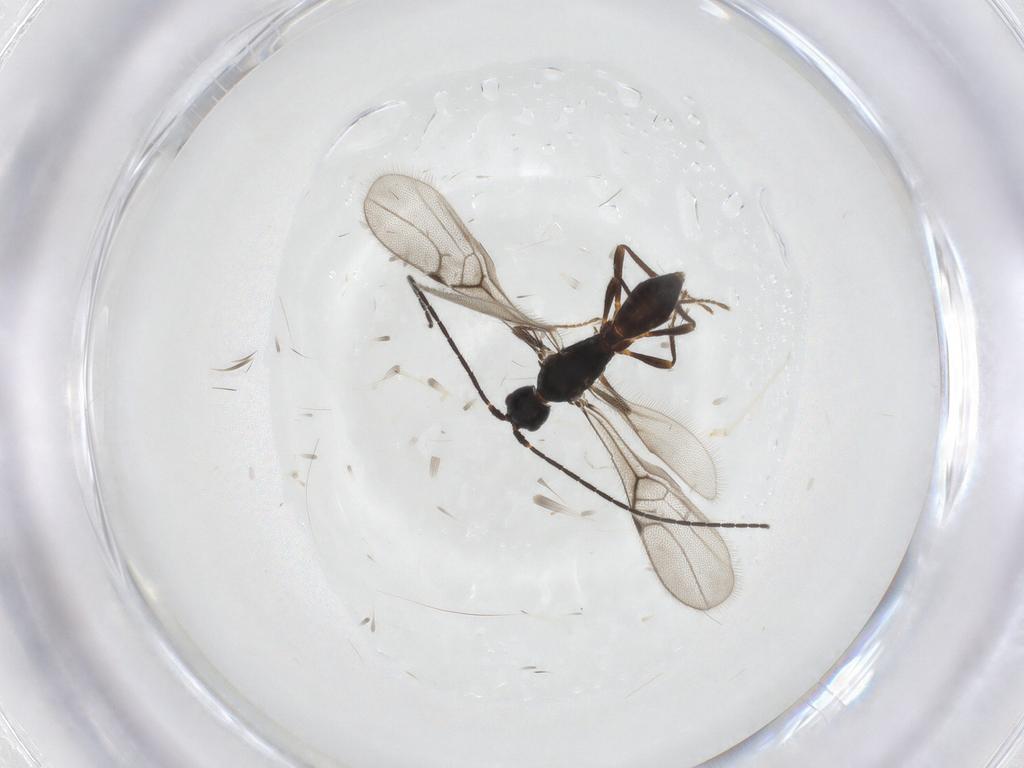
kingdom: Animalia
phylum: Arthropoda
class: Insecta
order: Hymenoptera
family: Braconidae
